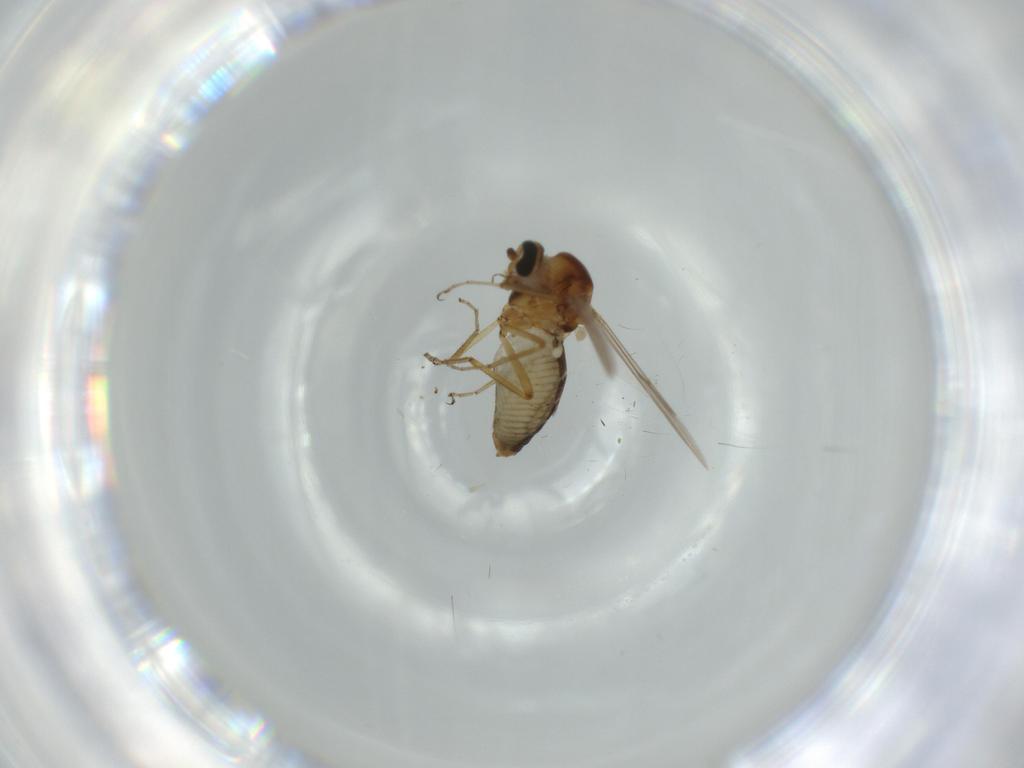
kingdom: Animalia
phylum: Arthropoda
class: Insecta
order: Diptera
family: Ceratopogonidae
